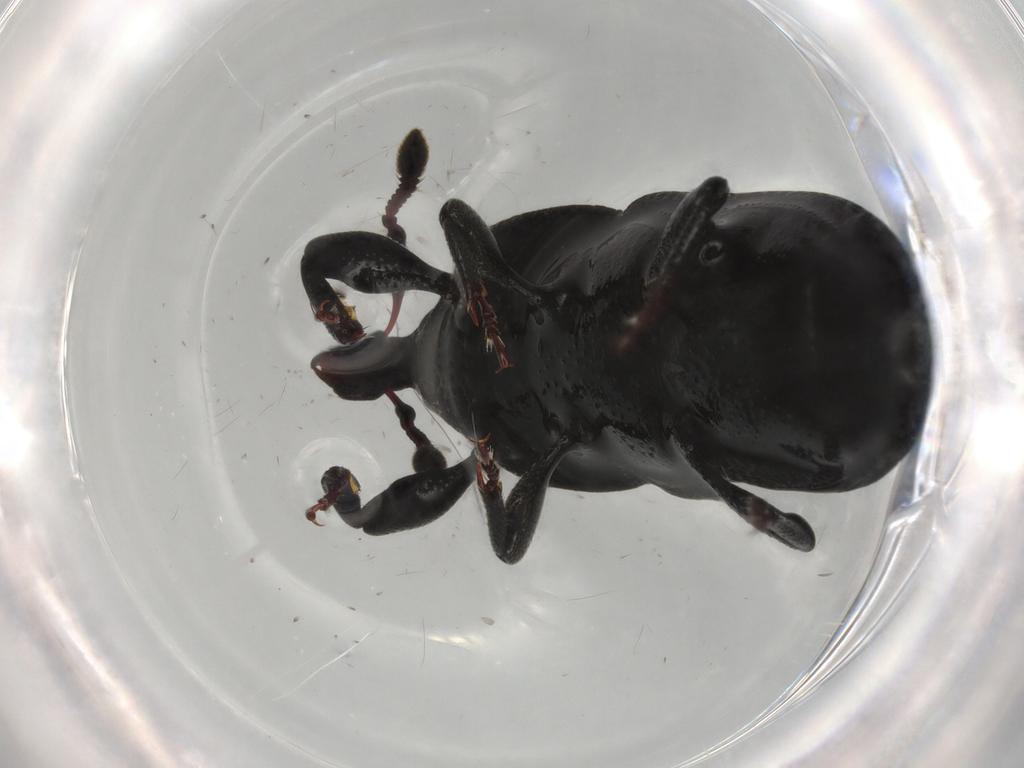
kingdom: Animalia
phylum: Arthropoda
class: Insecta
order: Coleoptera
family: Curculionidae
